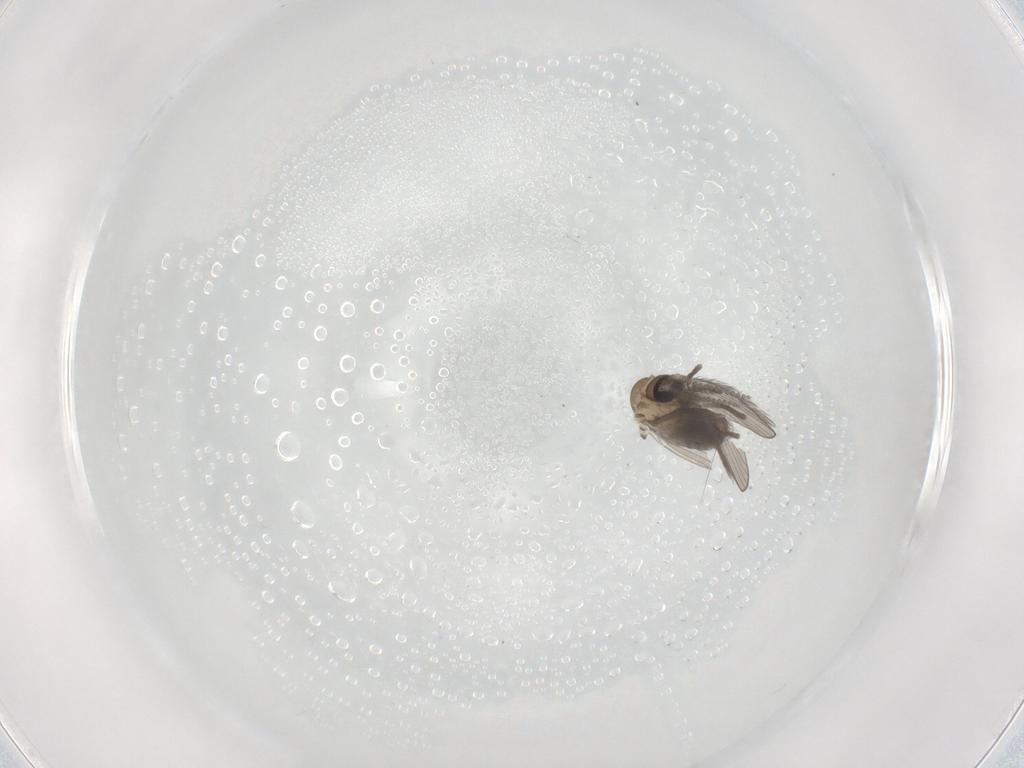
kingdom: Animalia
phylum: Arthropoda
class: Insecta
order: Diptera
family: Psychodidae
